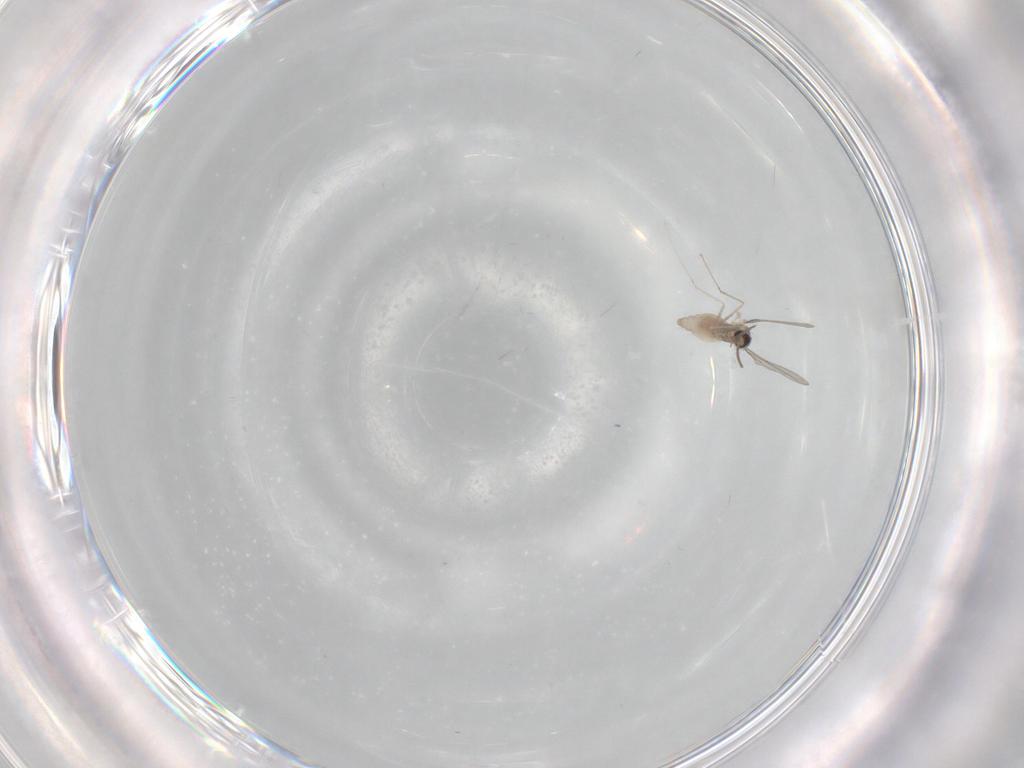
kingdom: Animalia
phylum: Arthropoda
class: Insecta
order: Diptera
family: Cecidomyiidae
